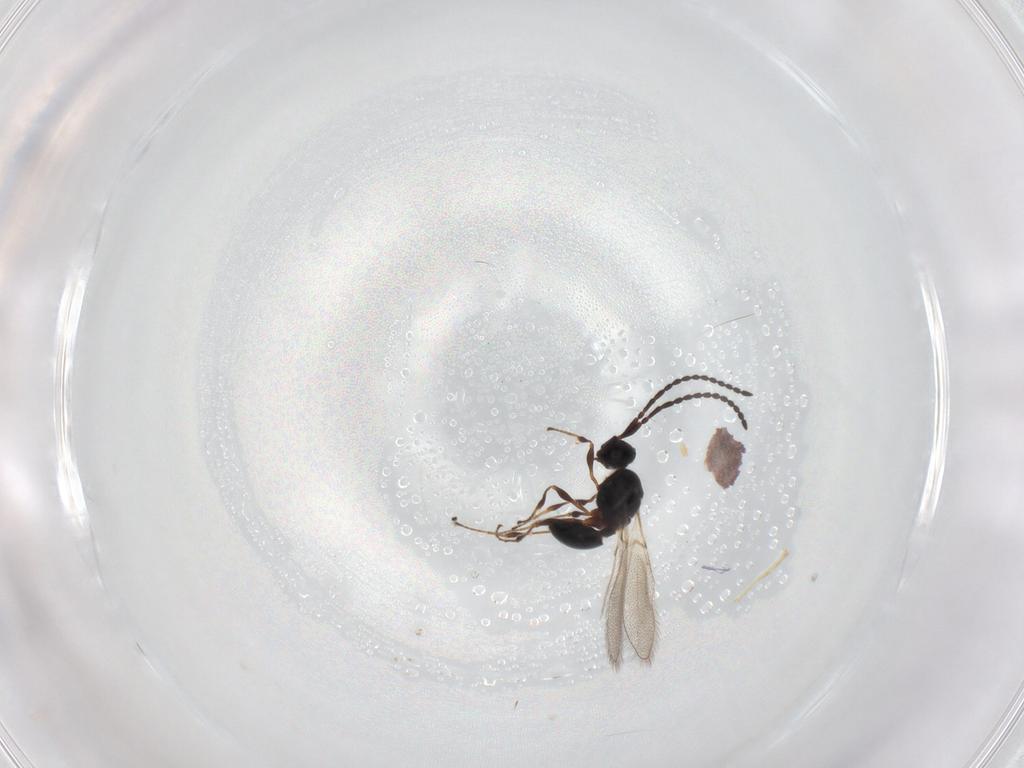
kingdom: Animalia
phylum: Arthropoda
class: Insecta
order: Hymenoptera
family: Diapriidae
